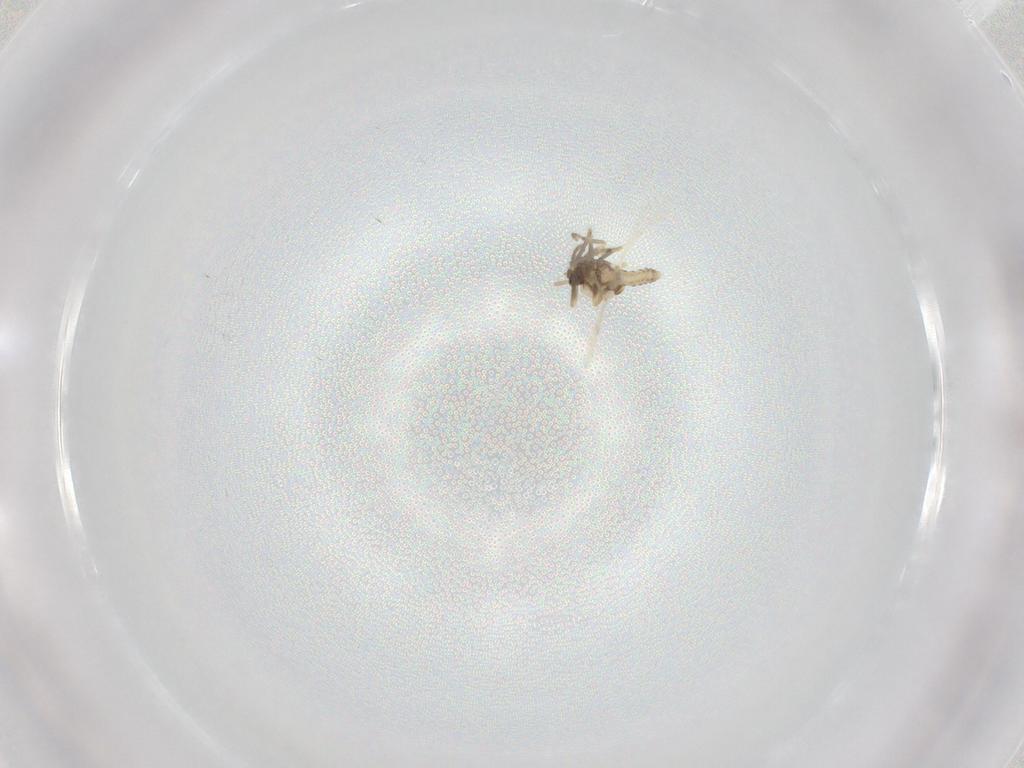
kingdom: Animalia
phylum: Arthropoda
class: Insecta
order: Diptera
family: Ceratopogonidae
